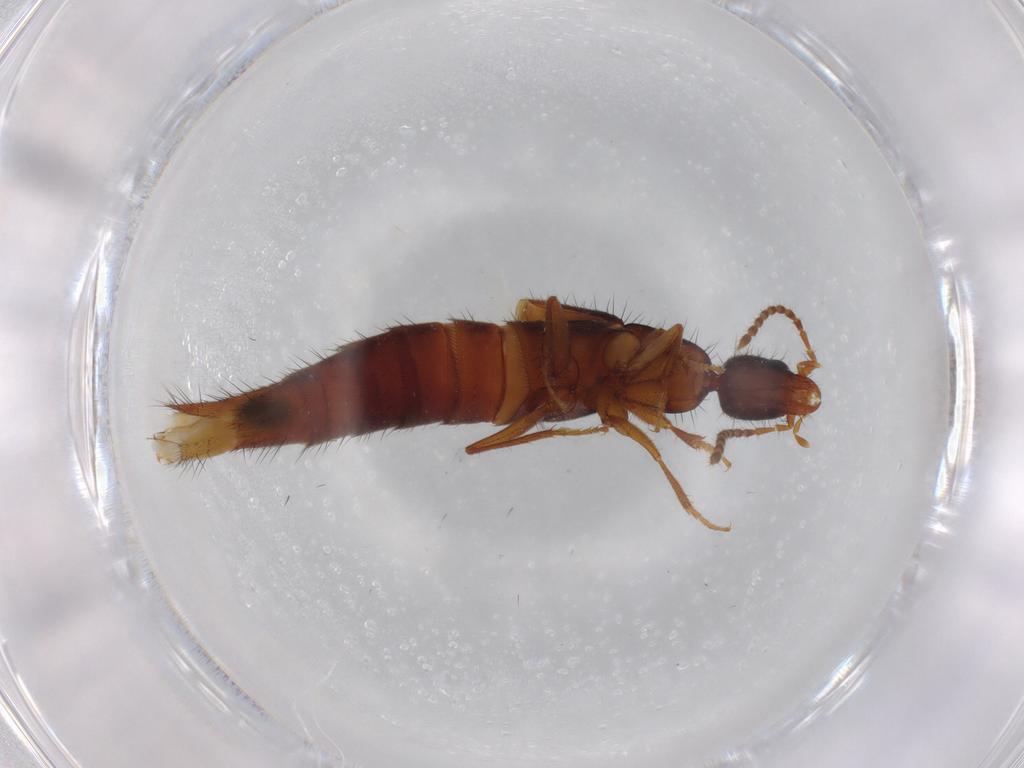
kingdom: Animalia
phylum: Arthropoda
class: Insecta
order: Coleoptera
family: Staphylinidae
